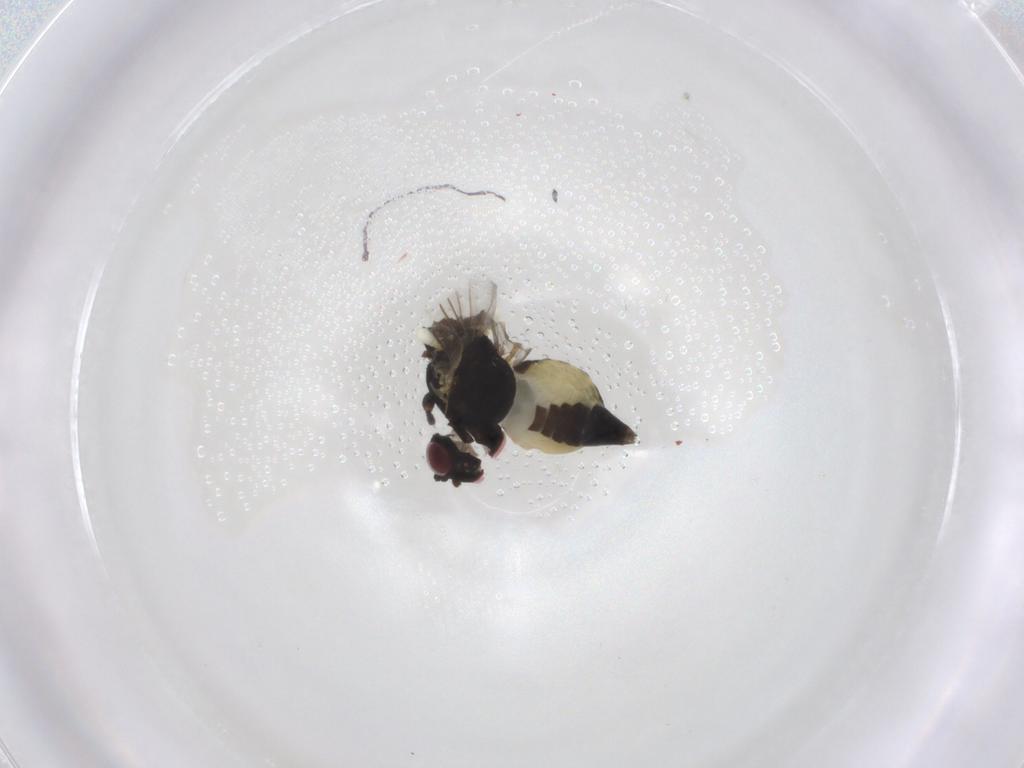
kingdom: Animalia
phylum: Arthropoda
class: Insecta
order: Diptera
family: Agromyzidae
